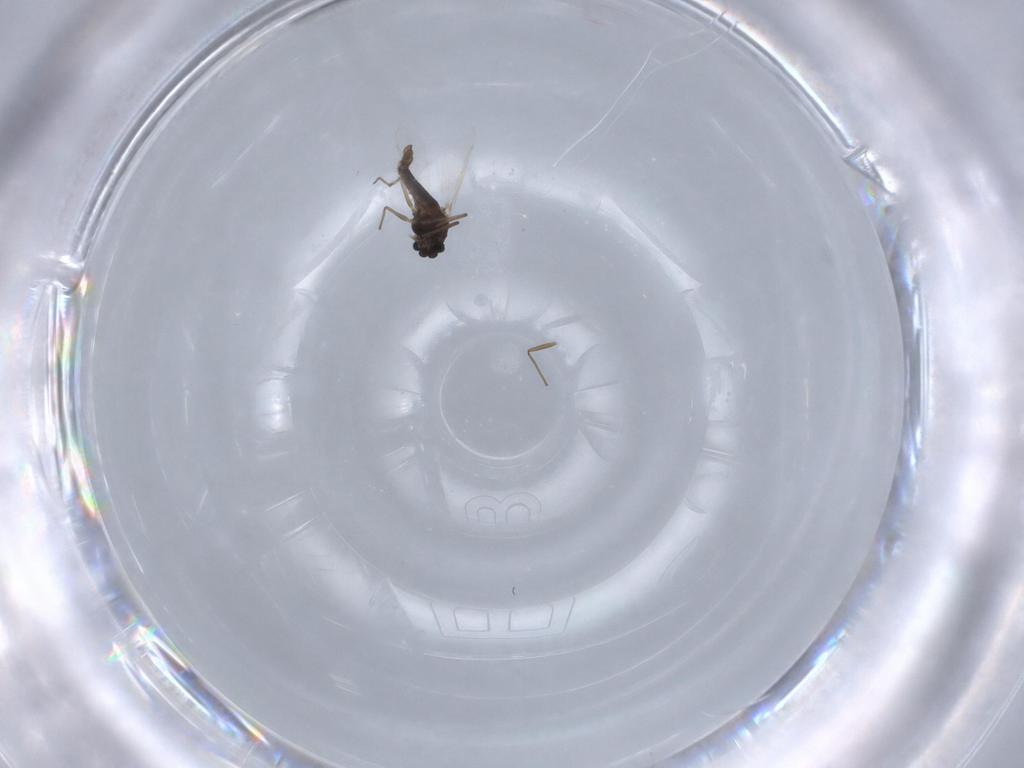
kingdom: Animalia
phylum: Arthropoda
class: Insecta
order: Diptera
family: Chironomidae
